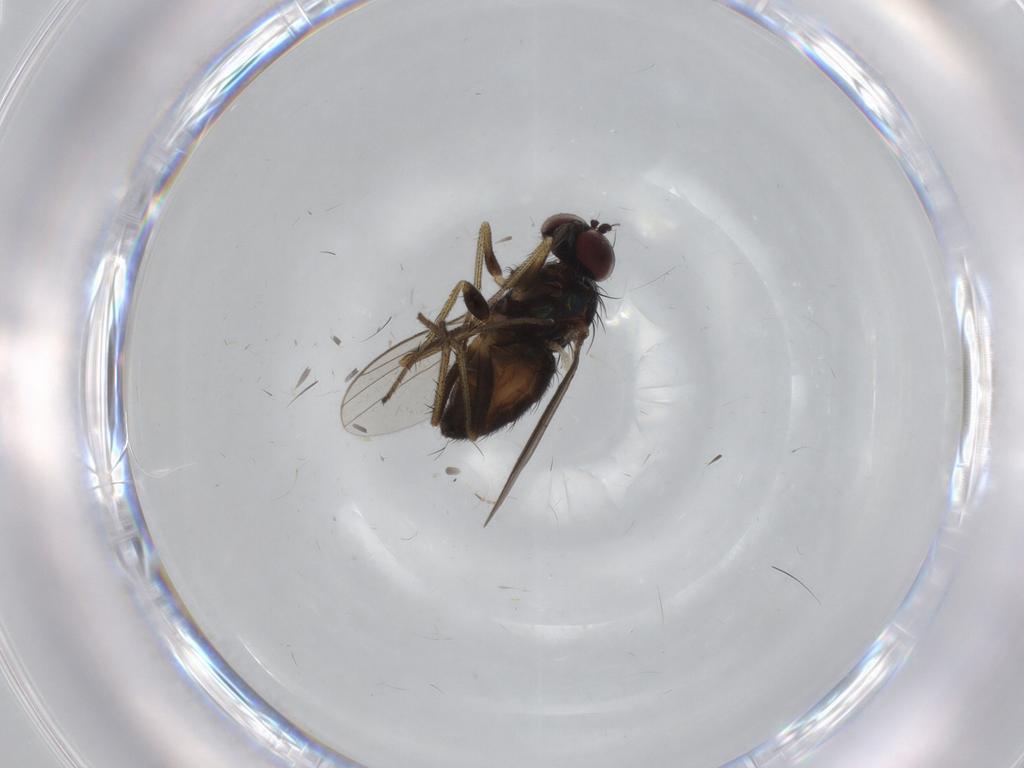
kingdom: Animalia
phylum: Arthropoda
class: Insecta
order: Diptera
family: Dolichopodidae
